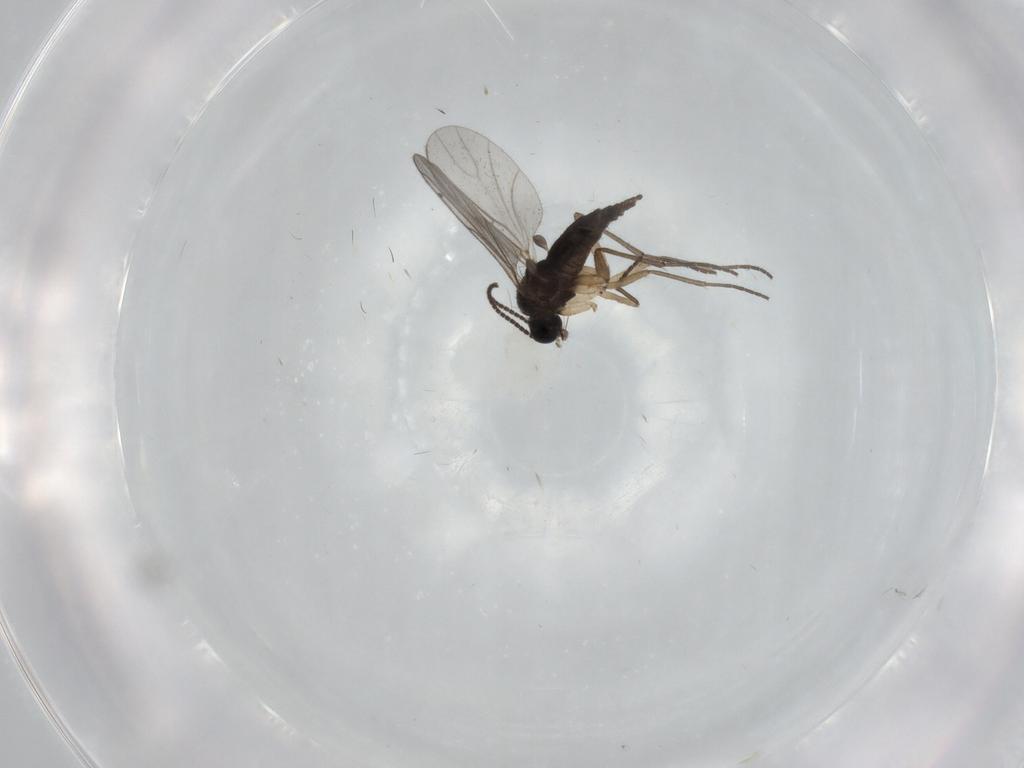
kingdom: Animalia
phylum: Arthropoda
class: Insecta
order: Diptera
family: Sciaridae
